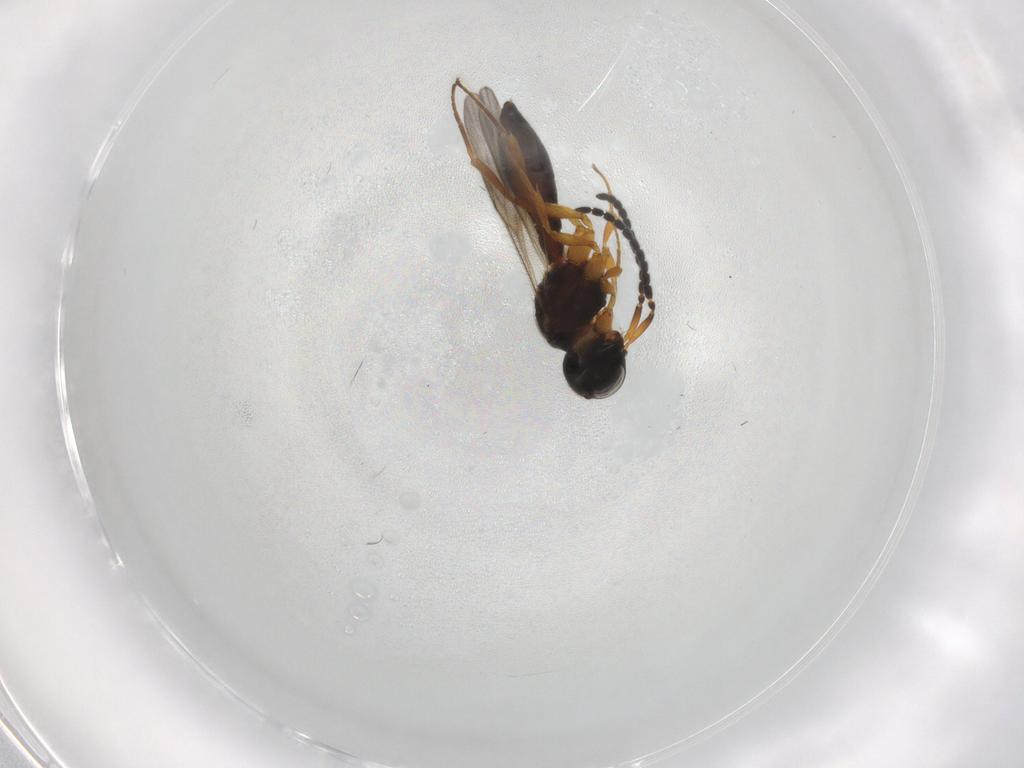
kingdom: Animalia
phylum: Arthropoda
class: Insecta
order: Hymenoptera
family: Scelionidae
